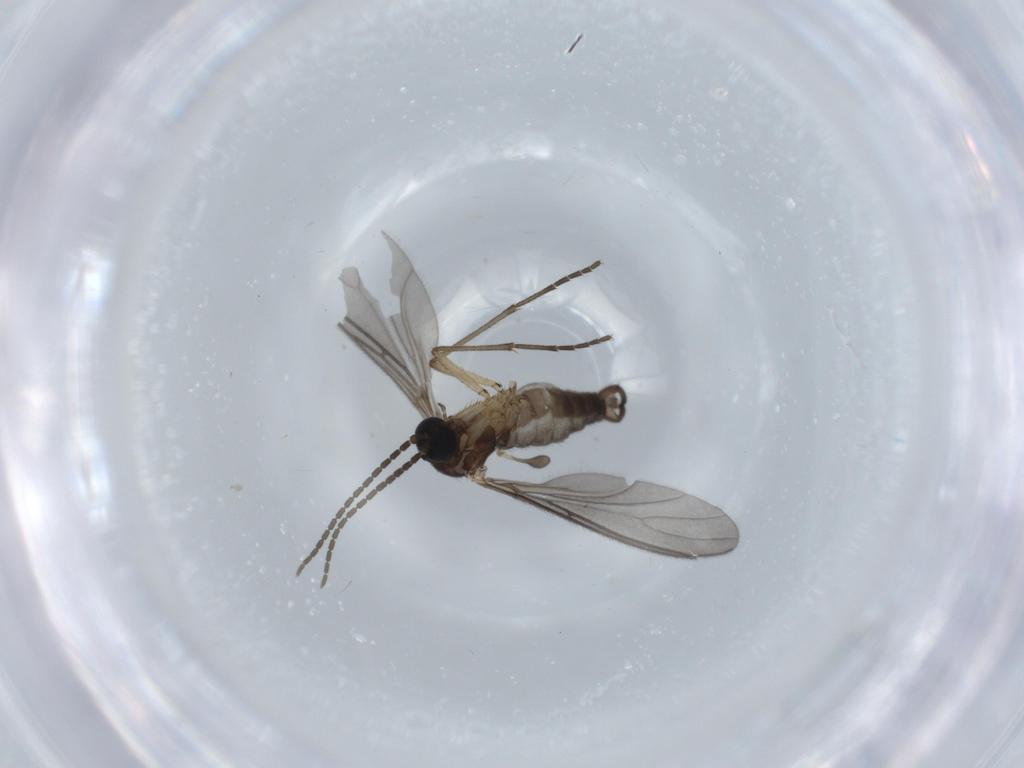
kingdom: Animalia
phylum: Arthropoda
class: Insecta
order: Diptera
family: Sciaridae
